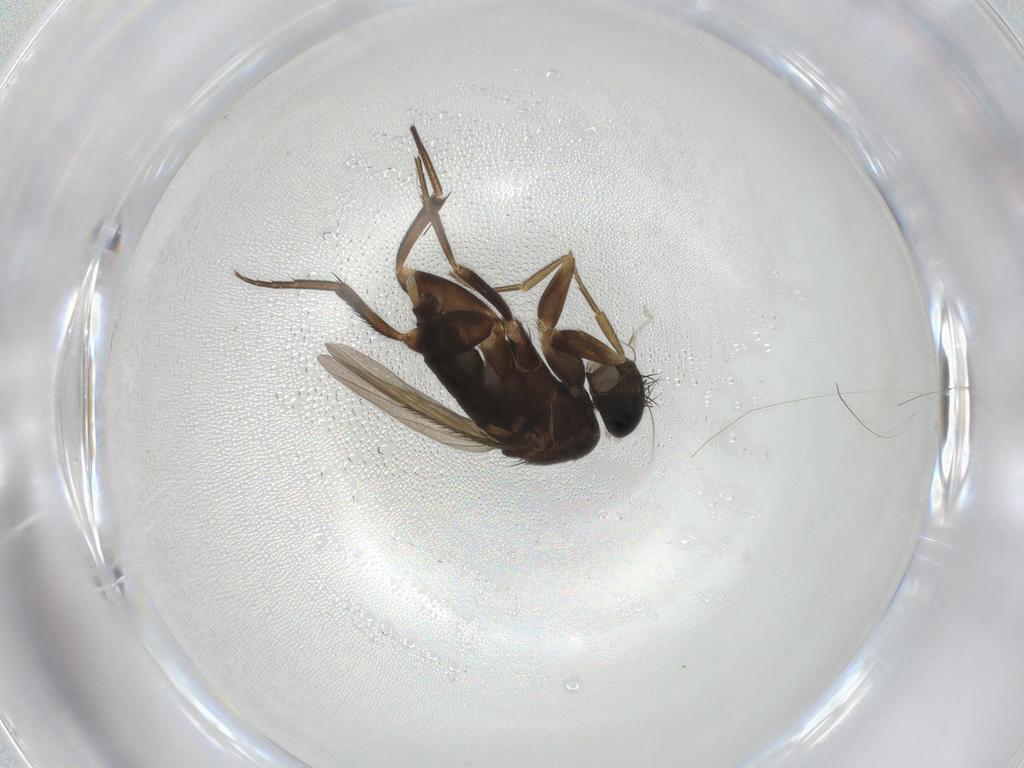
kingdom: Animalia
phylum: Arthropoda
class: Insecta
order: Diptera
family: Phoridae
